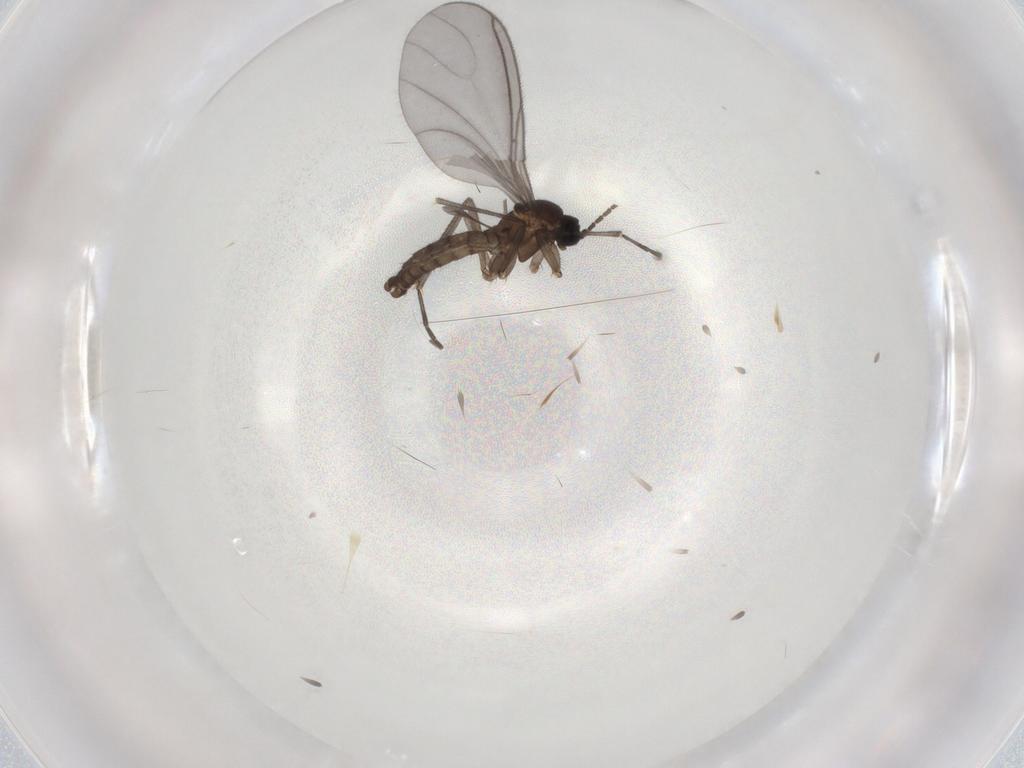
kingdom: Animalia
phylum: Arthropoda
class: Insecta
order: Diptera
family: Sciaridae
